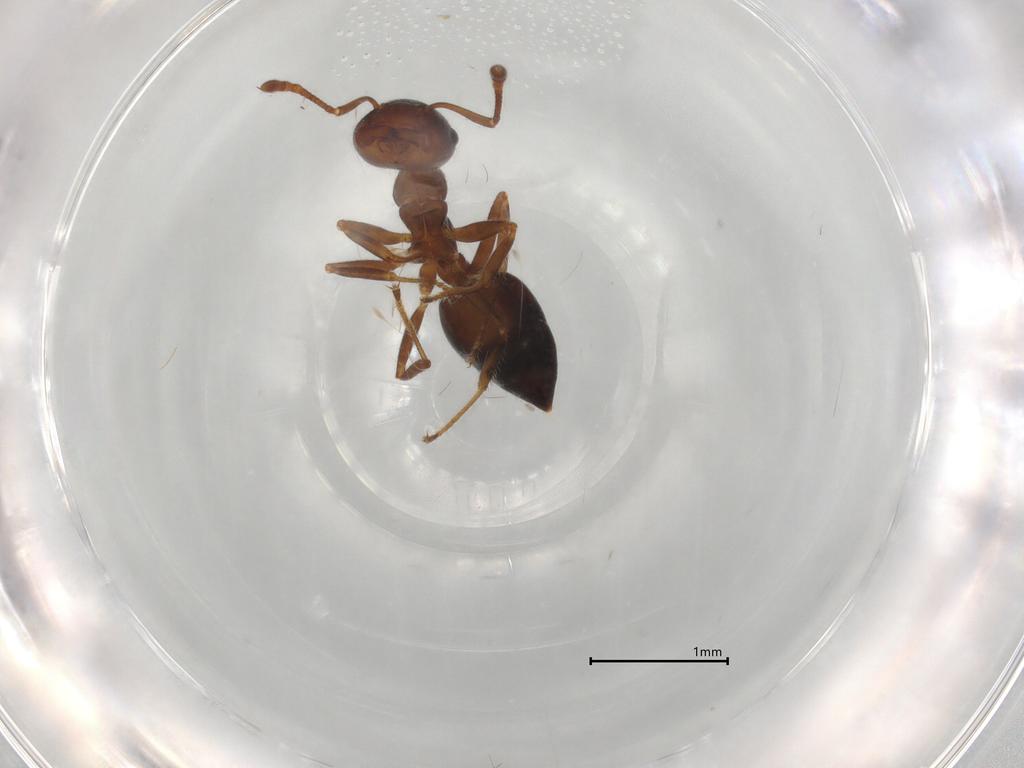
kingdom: Animalia
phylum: Arthropoda
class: Insecta
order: Hymenoptera
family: Formicidae
